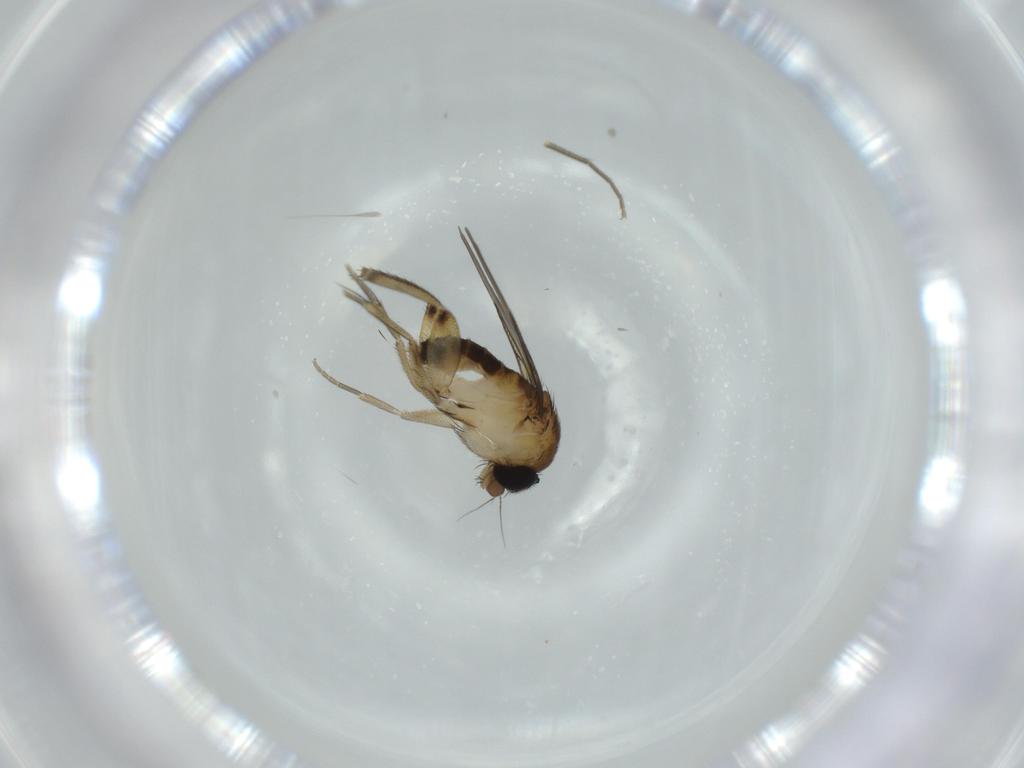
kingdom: Animalia
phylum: Arthropoda
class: Insecta
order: Diptera
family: Phoridae
